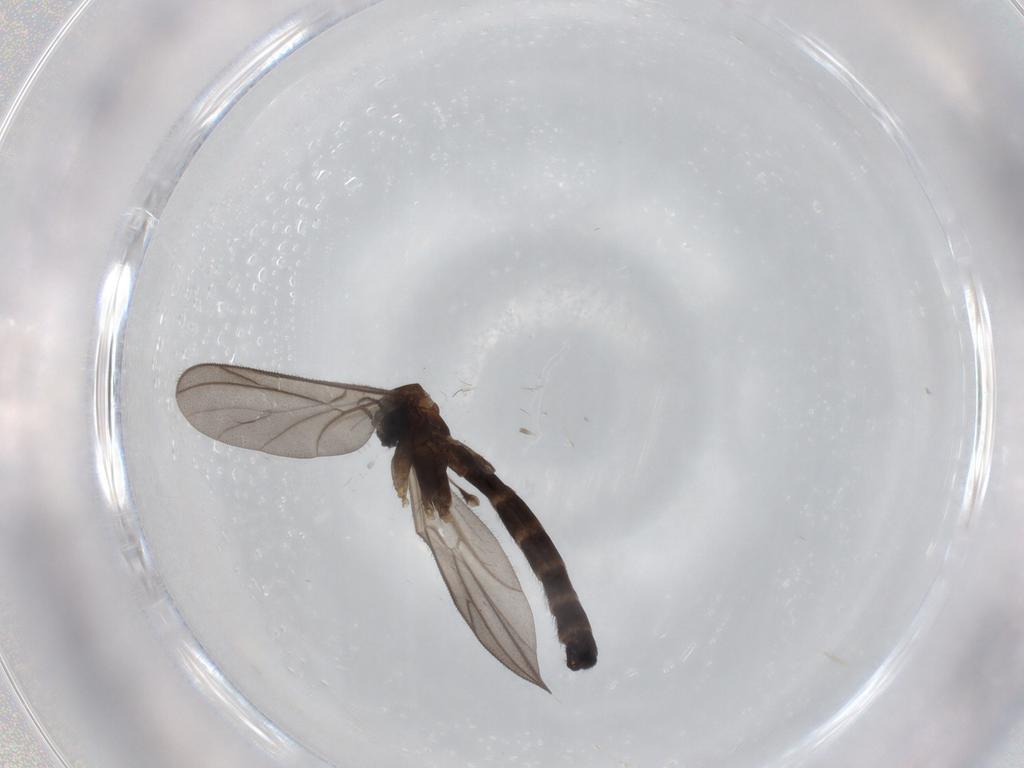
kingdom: Animalia
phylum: Arthropoda
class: Insecta
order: Diptera
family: Cecidomyiidae
